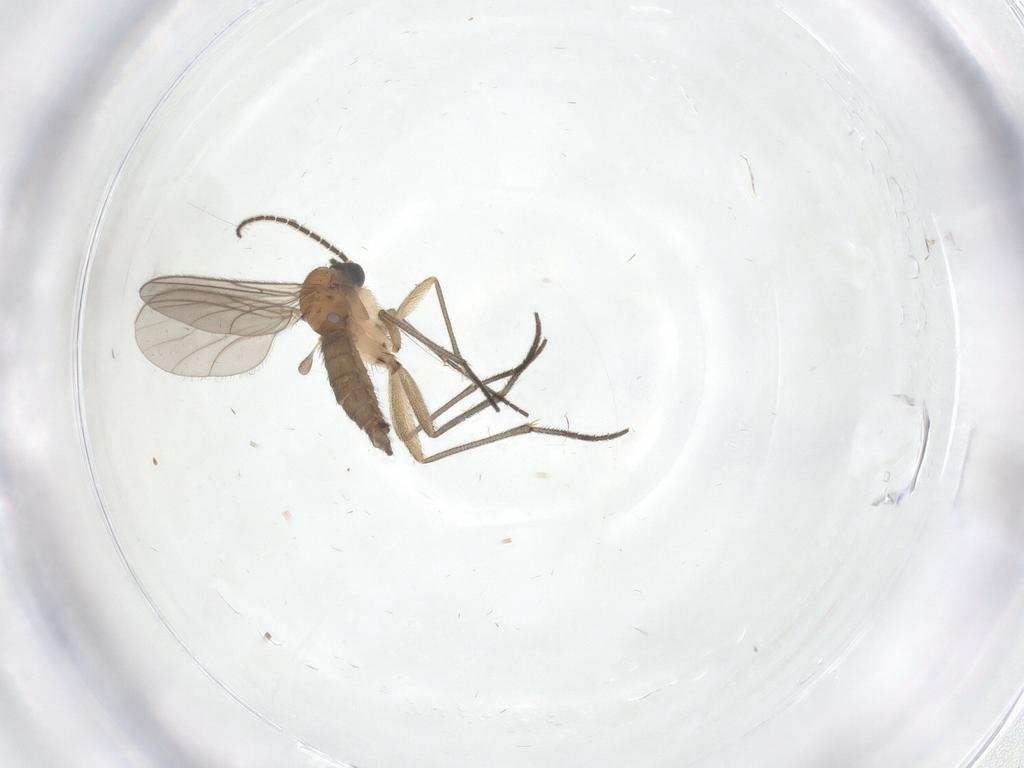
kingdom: Animalia
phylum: Arthropoda
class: Insecta
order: Diptera
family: Sciaridae
